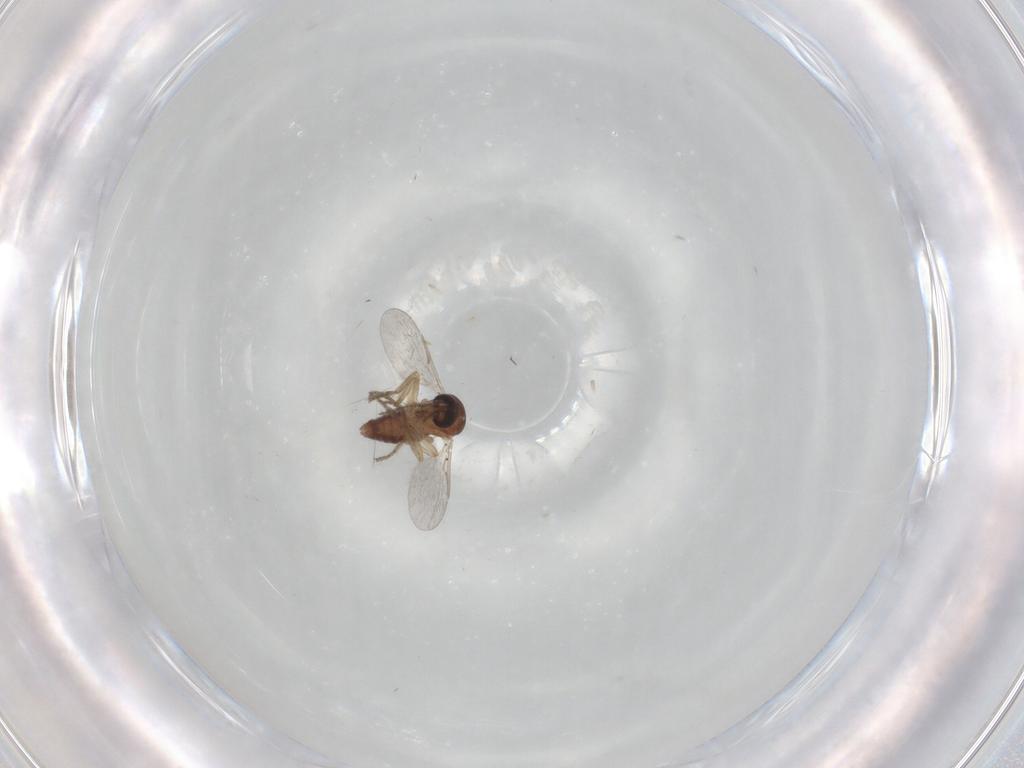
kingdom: Animalia
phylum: Arthropoda
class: Insecta
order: Diptera
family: Ceratopogonidae
